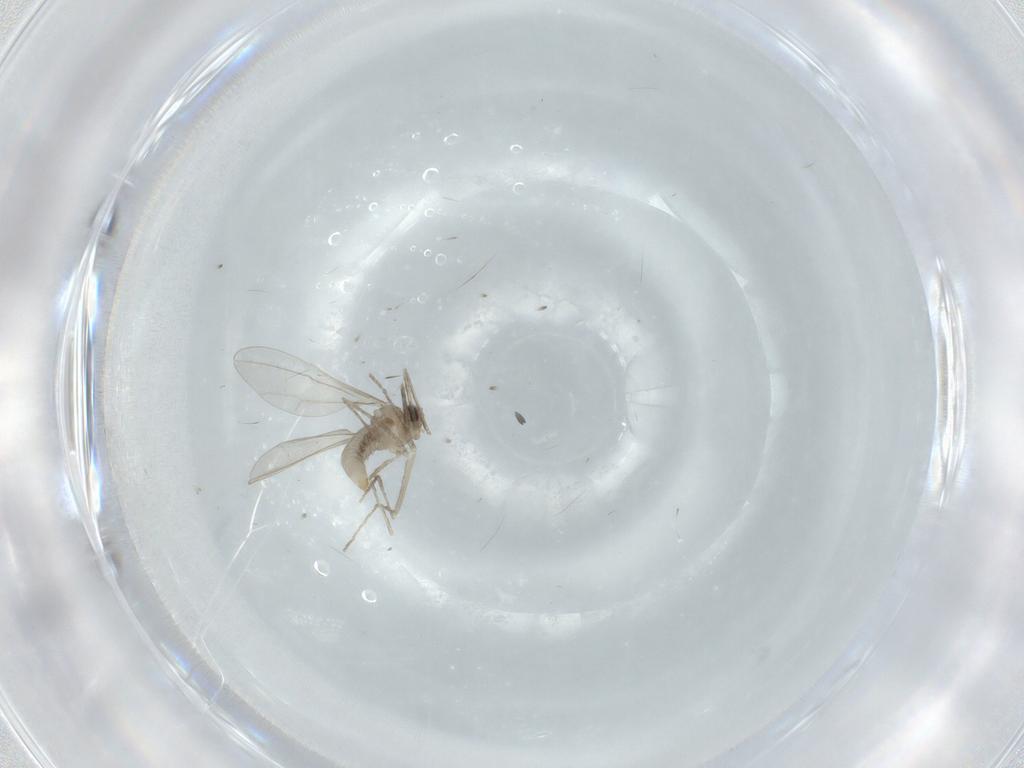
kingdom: Animalia
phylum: Arthropoda
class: Insecta
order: Diptera
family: Cecidomyiidae
